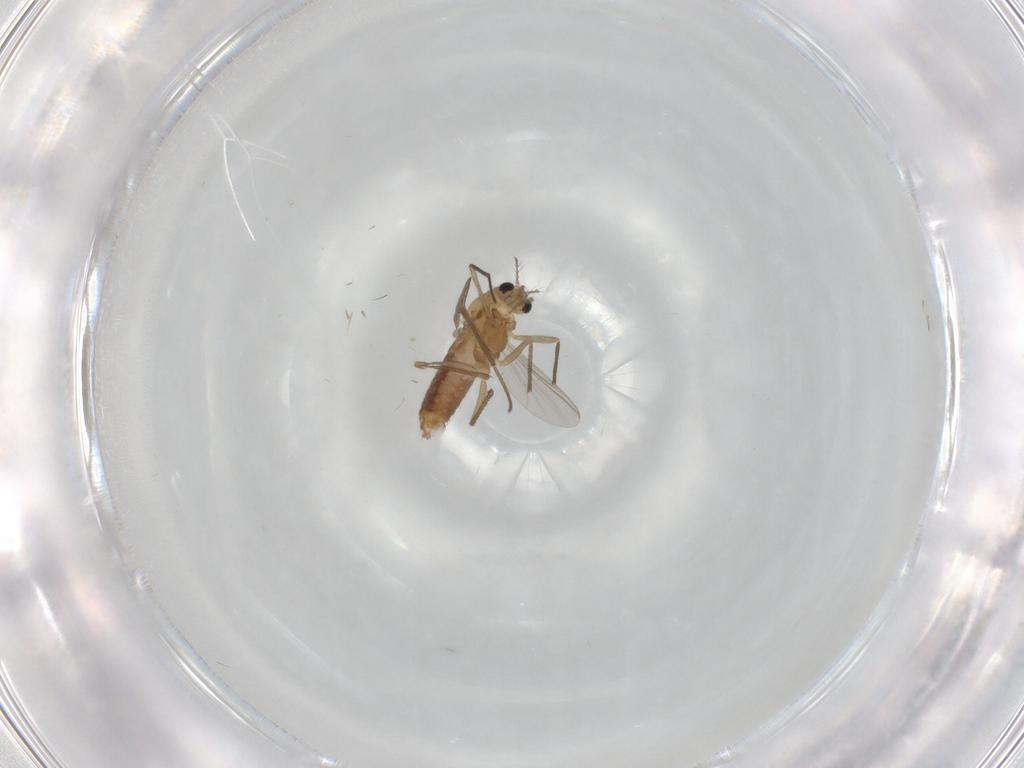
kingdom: Animalia
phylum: Arthropoda
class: Insecta
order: Diptera
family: Chironomidae
